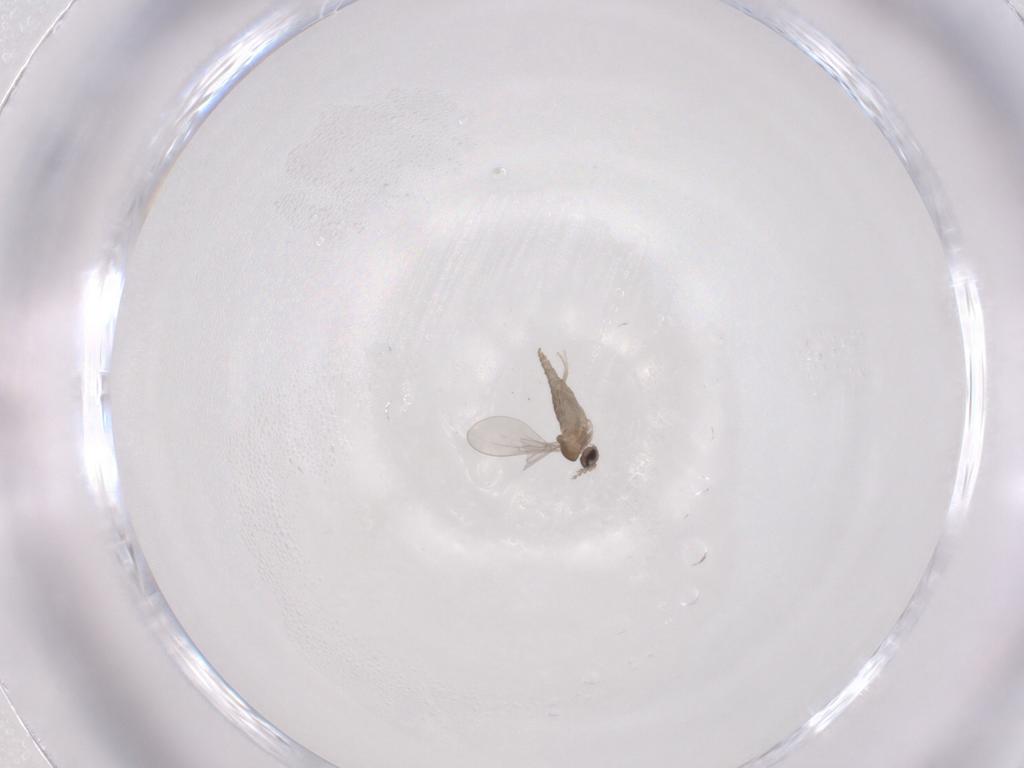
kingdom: Animalia
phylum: Arthropoda
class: Insecta
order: Diptera
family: Cecidomyiidae
